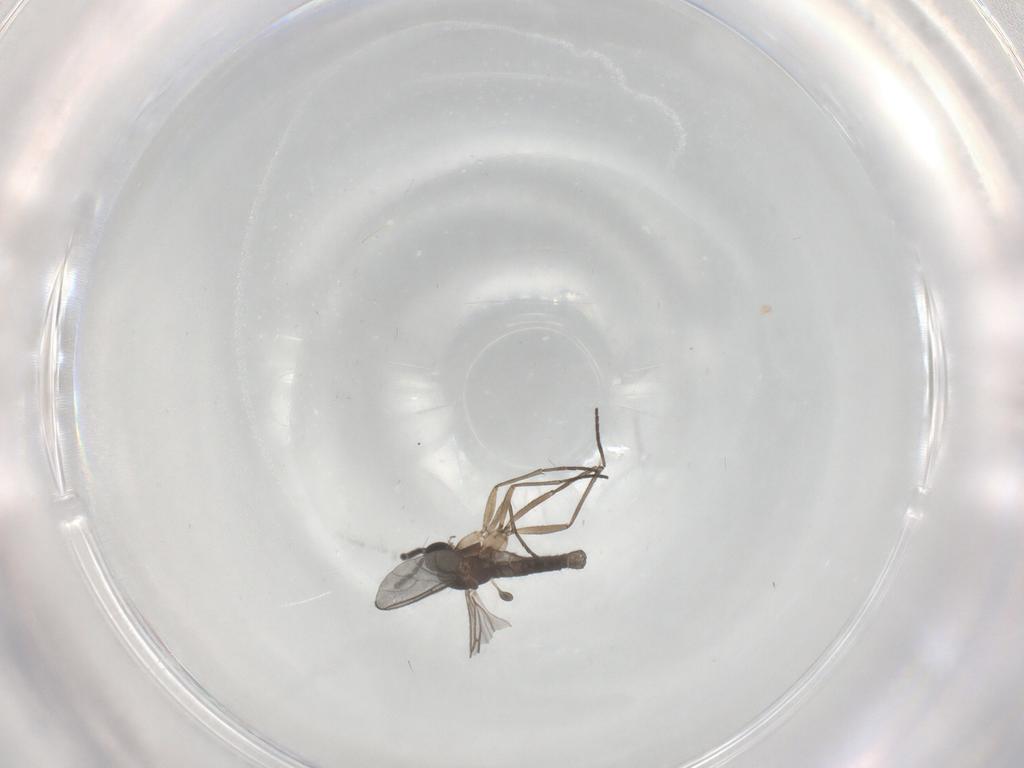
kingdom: Animalia
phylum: Arthropoda
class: Insecta
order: Diptera
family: Sciaridae
